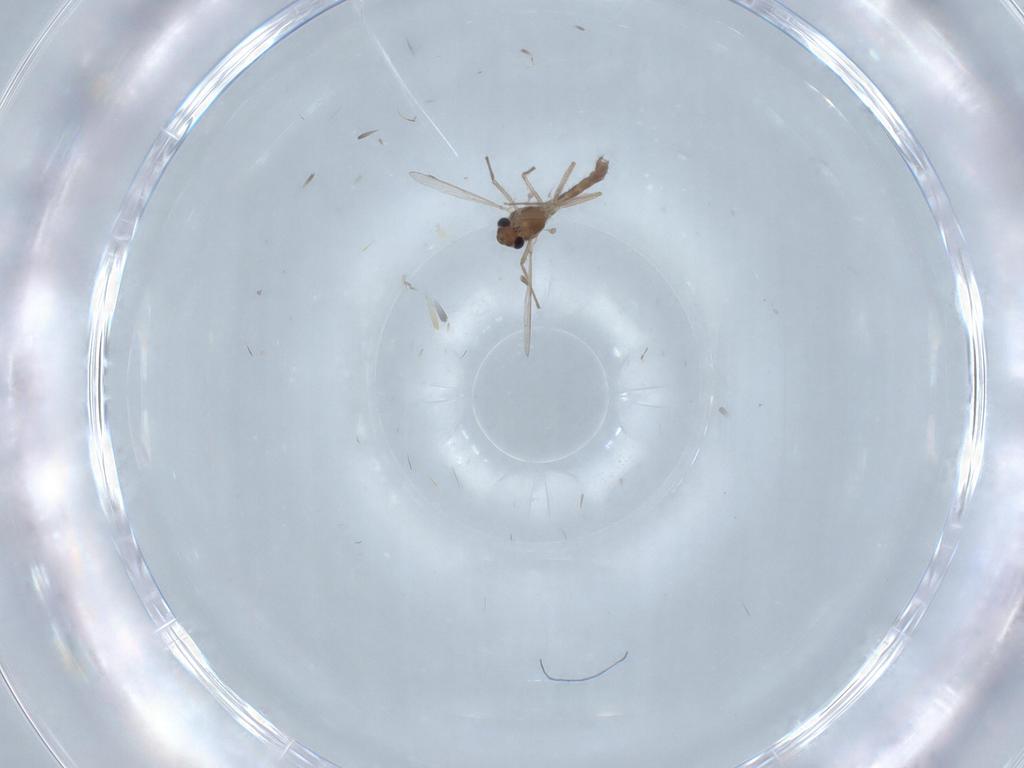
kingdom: Animalia
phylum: Arthropoda
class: Insecta
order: Diptera
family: Chironomidae
